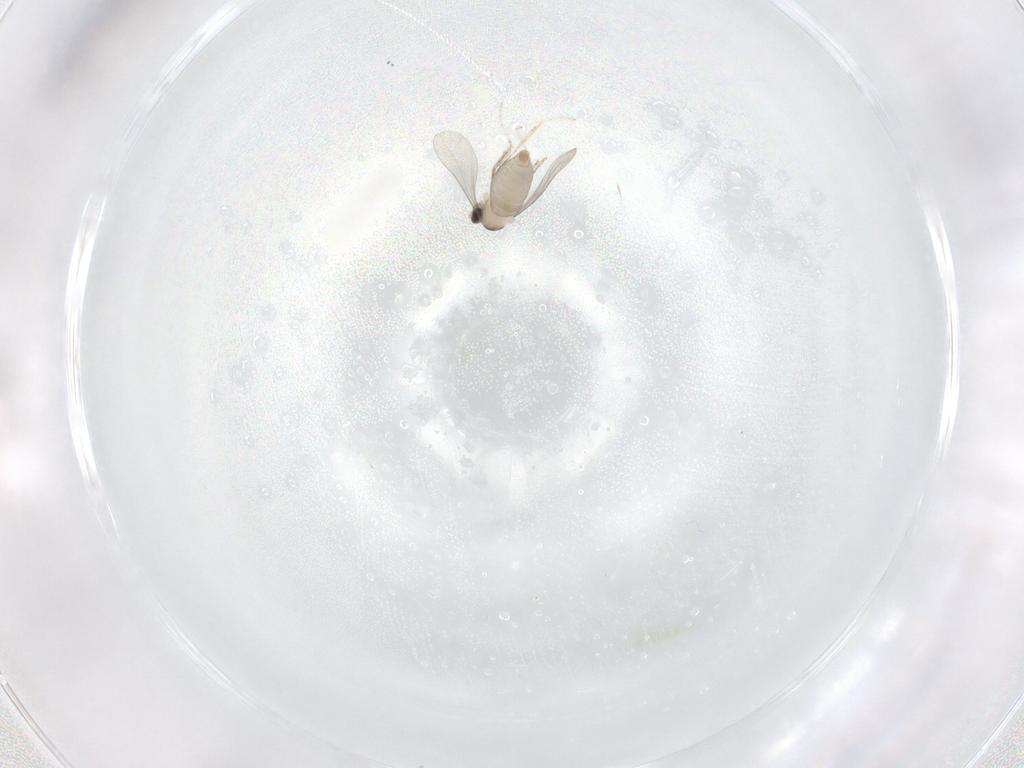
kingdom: Animalia
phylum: Arthropoda
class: Insecta
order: Diptera
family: Cecidomyiidae
